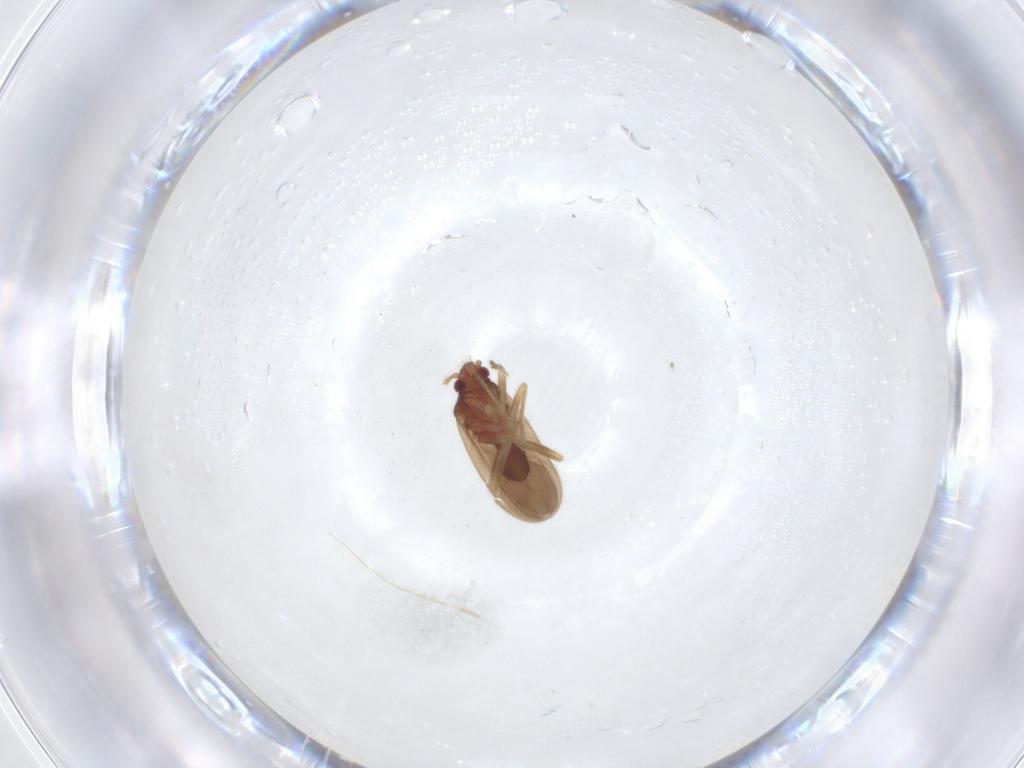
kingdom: Animalia
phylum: Arthropoda
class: Insecta
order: Hemiptera
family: Ceratocombidae
